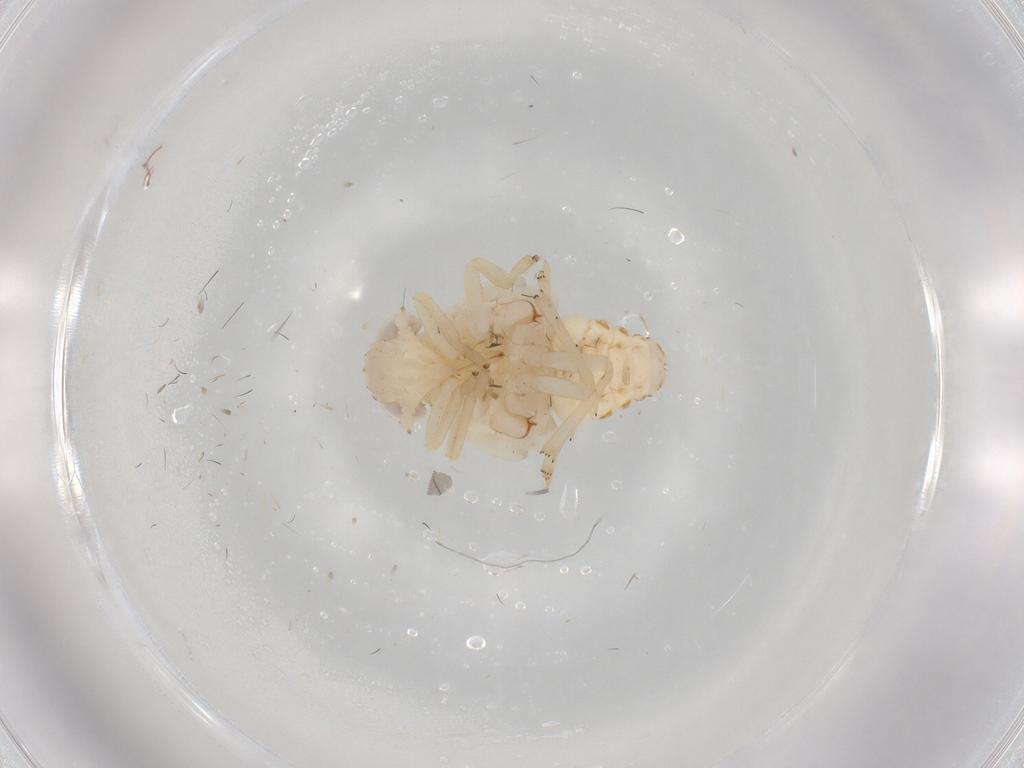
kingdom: Animalia
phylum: Arthropoda
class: Insecta
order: Hemiptera
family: Nogodinidae
